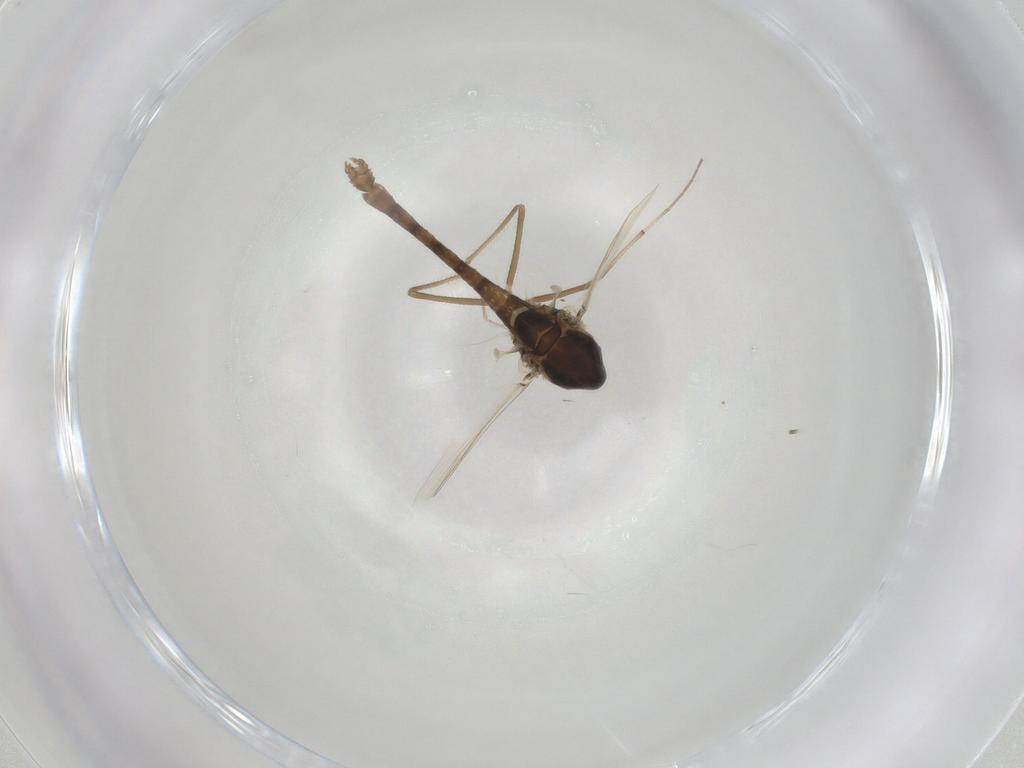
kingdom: Animalia
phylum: Arthropoda
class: Insecta
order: Diptera
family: Chironomidae
